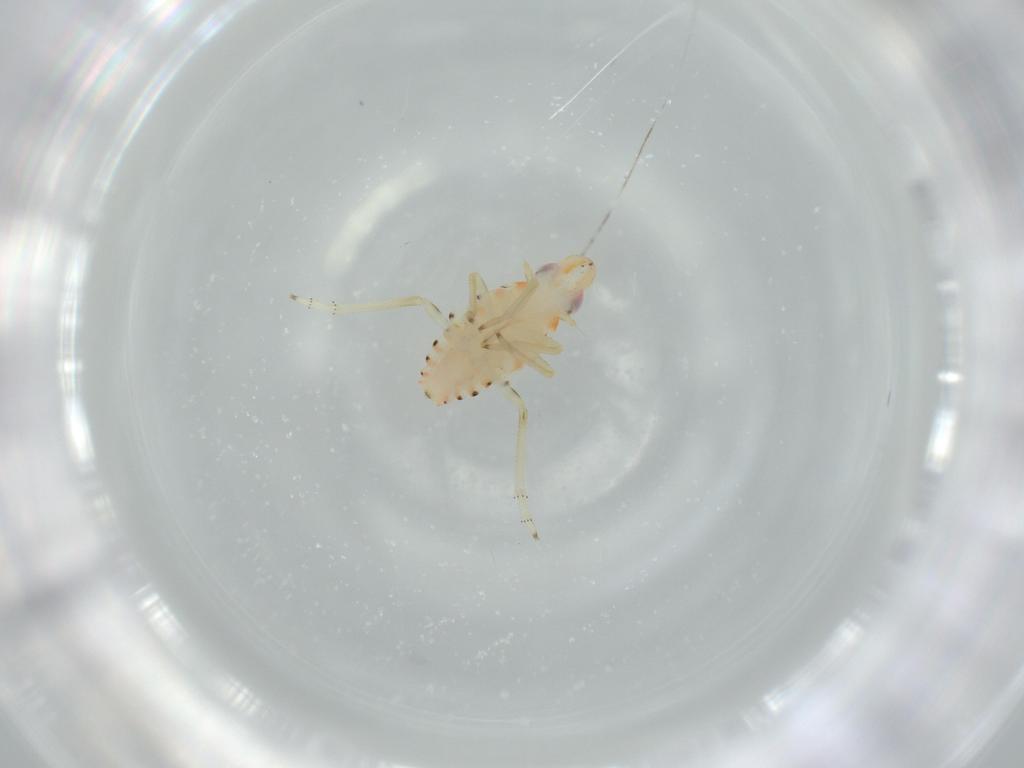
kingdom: Animalia
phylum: Arthropoda
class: Insecta
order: Hemiptera
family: Tropiduchidae
